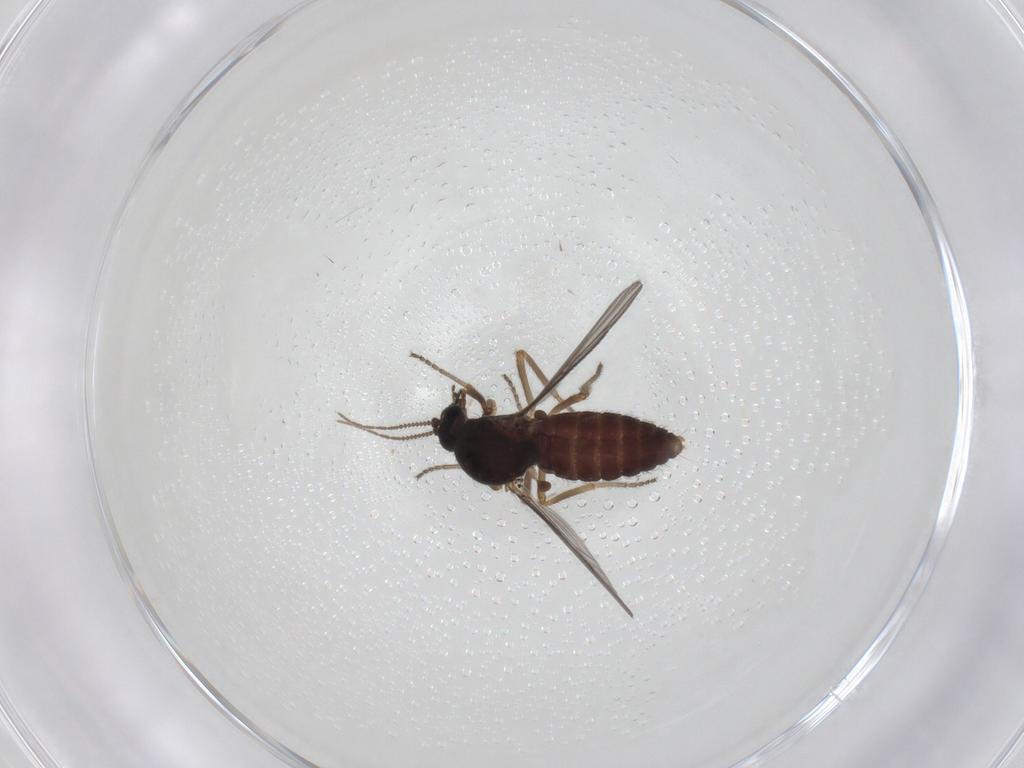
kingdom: Animalia
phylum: Arthropoda
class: Insecta
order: Diptera
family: Ceratopogonidae
